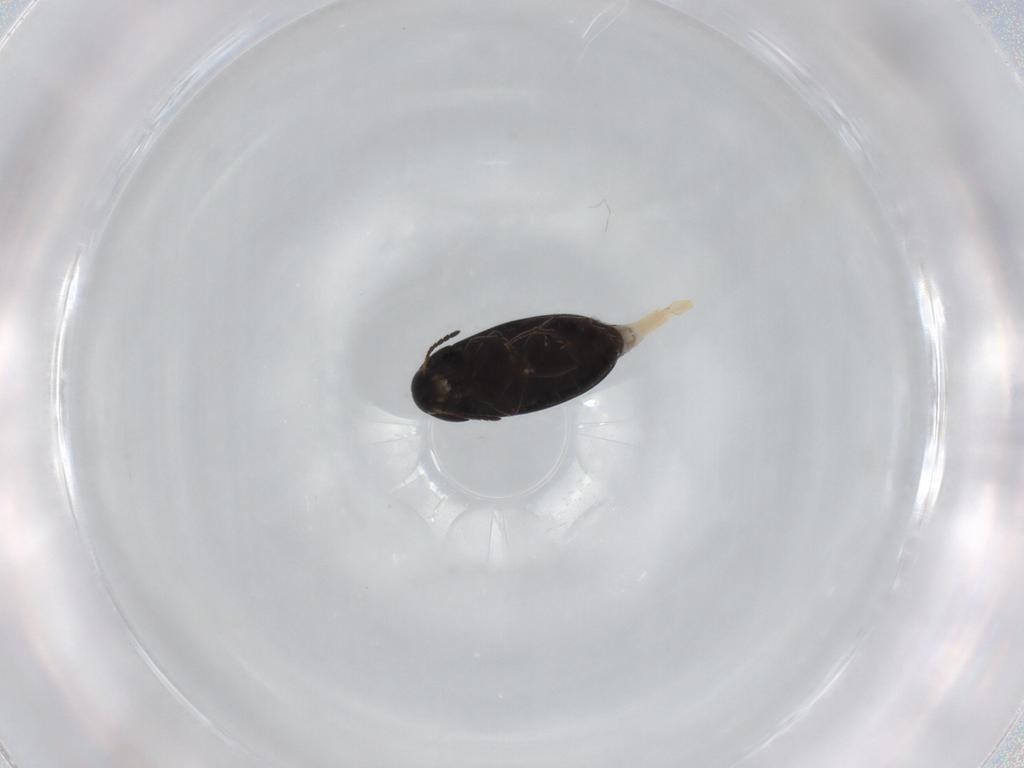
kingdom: Animalia
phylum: Arthropoda
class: Insecta
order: Coleoptera
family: Scraptiidae
